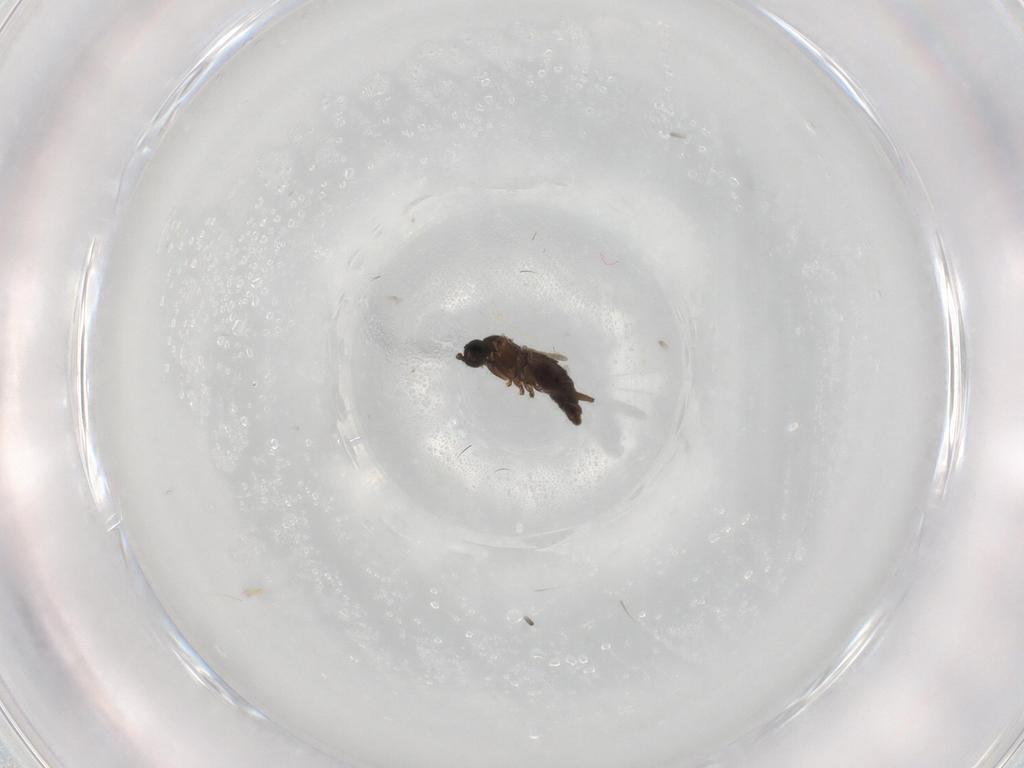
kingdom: Animalia
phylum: Arthropoda
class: Insecta
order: Diptera
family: Sciaridae
